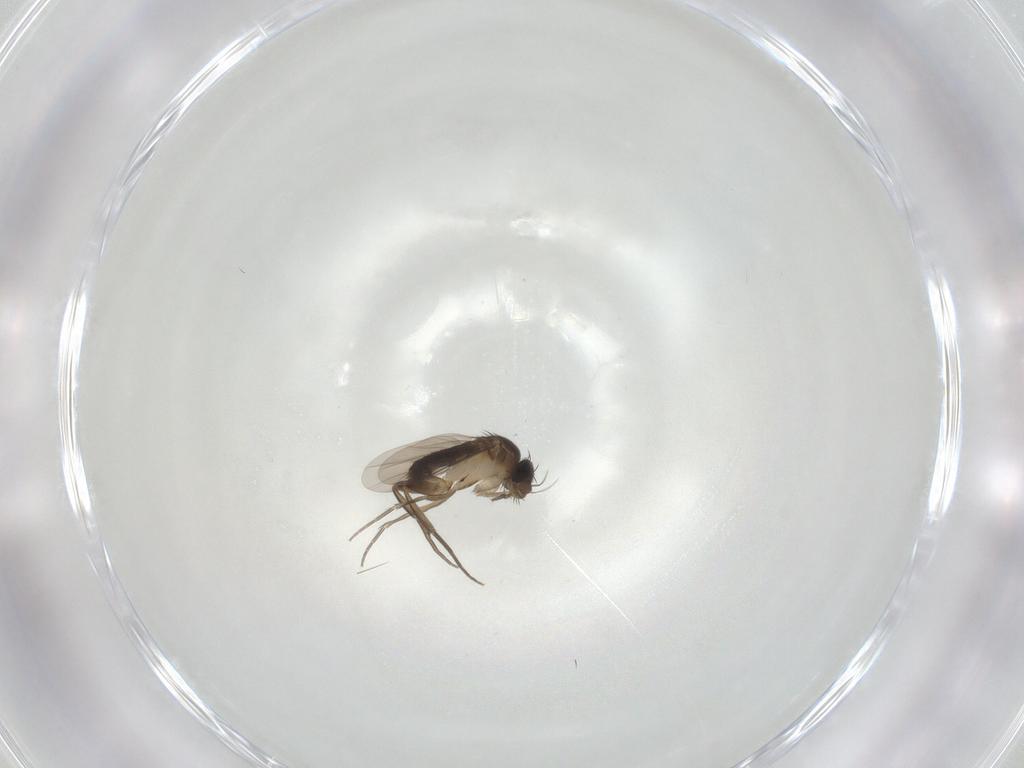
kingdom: Animalia
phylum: Arthropoda
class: Insecta
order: Diptera
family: Phoridae
